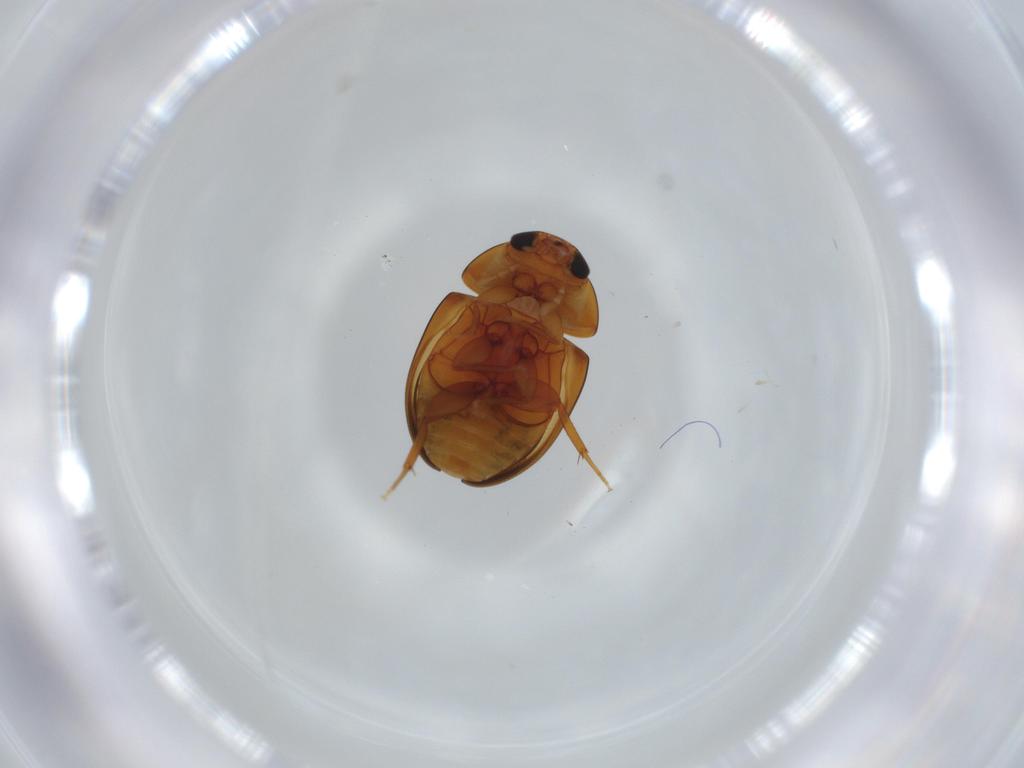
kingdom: Animalia
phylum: Arthropoda
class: Insecta
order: Coleoptera
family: Phalacridae
